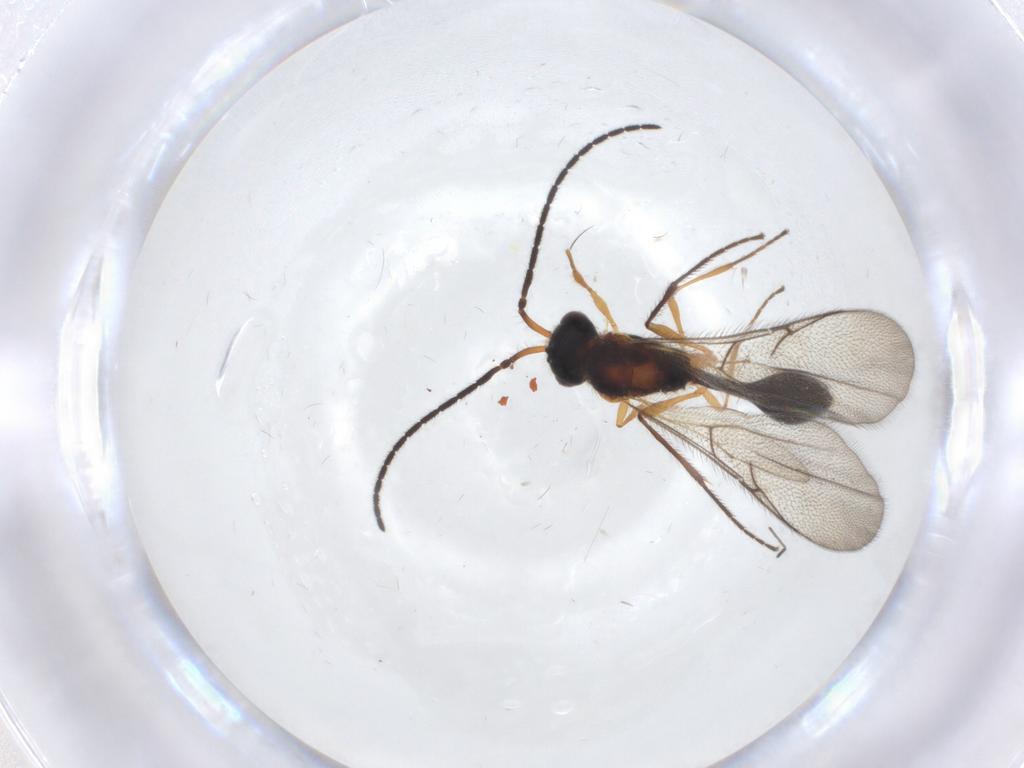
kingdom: Animalia
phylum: Arthropoda
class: Insecta
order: Hymenoptera
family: Diapriidae
